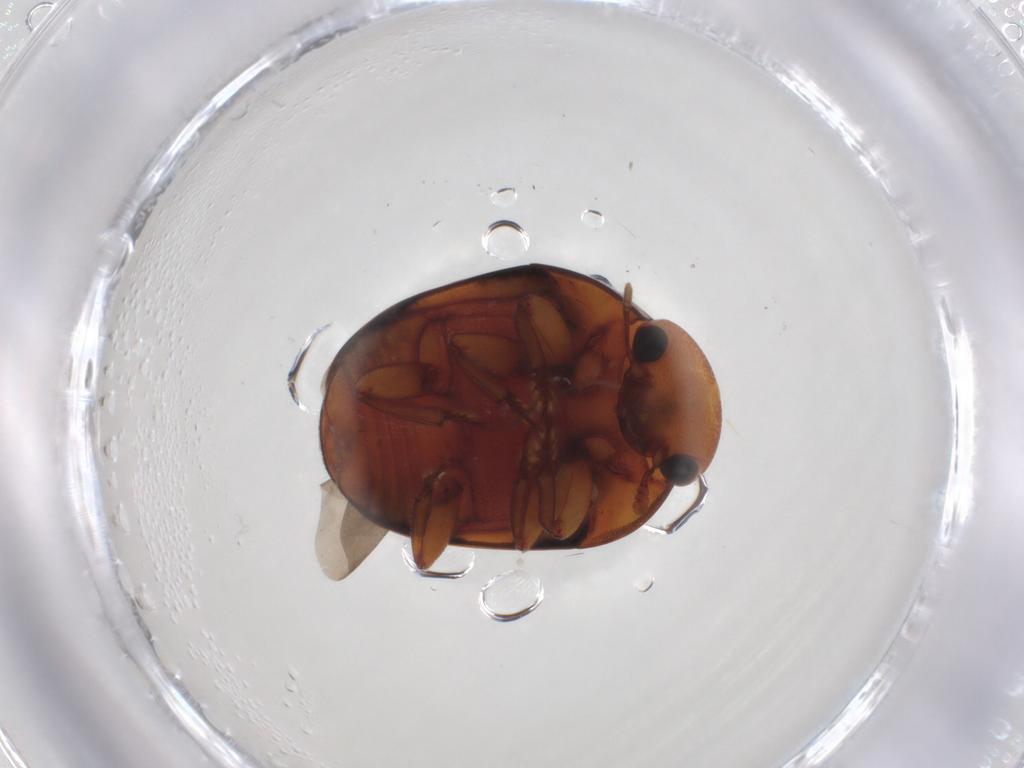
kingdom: Animalia
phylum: Arthropoda
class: Insecta
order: Coleoptera
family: Nitidulidae
